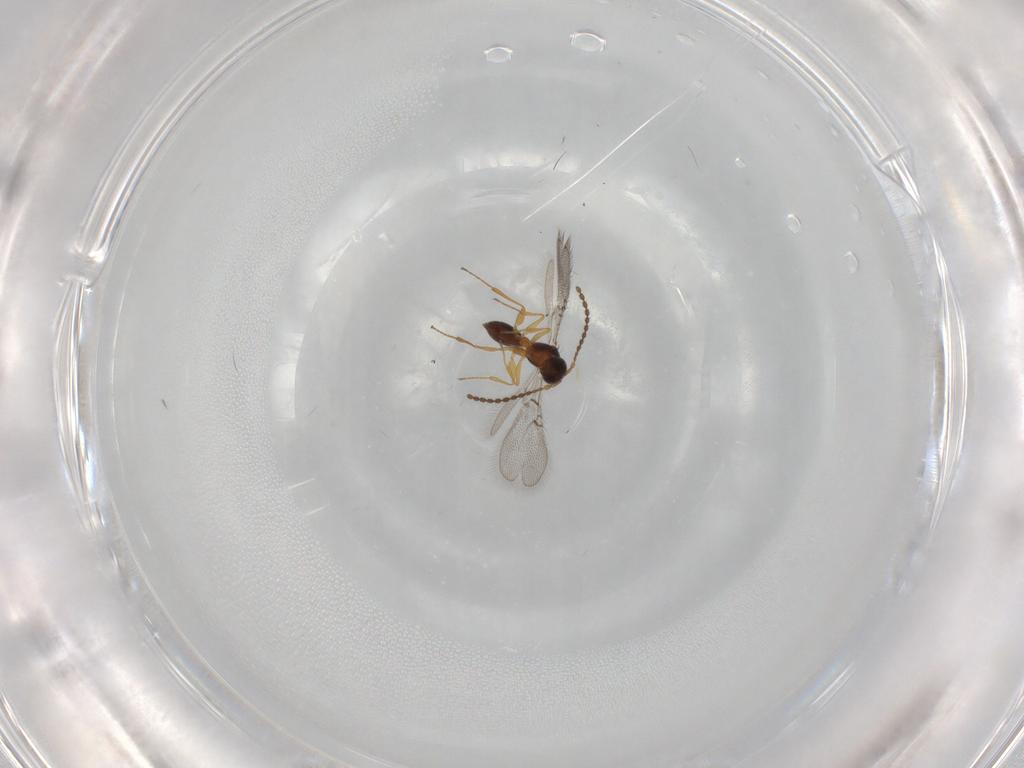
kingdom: Animalia
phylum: Arthropoda
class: Insecta
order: Hymenoptera
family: Figitidae
